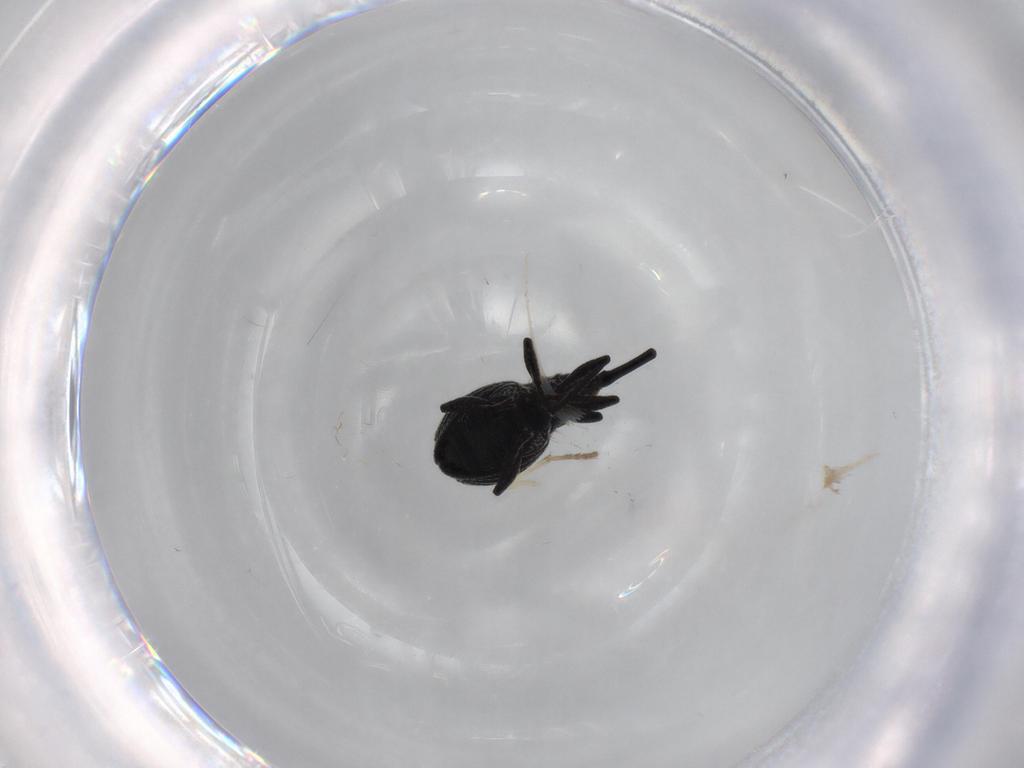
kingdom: Animalia
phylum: Arthropoda
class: Insecta
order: Coleoptera
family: Brentidae
